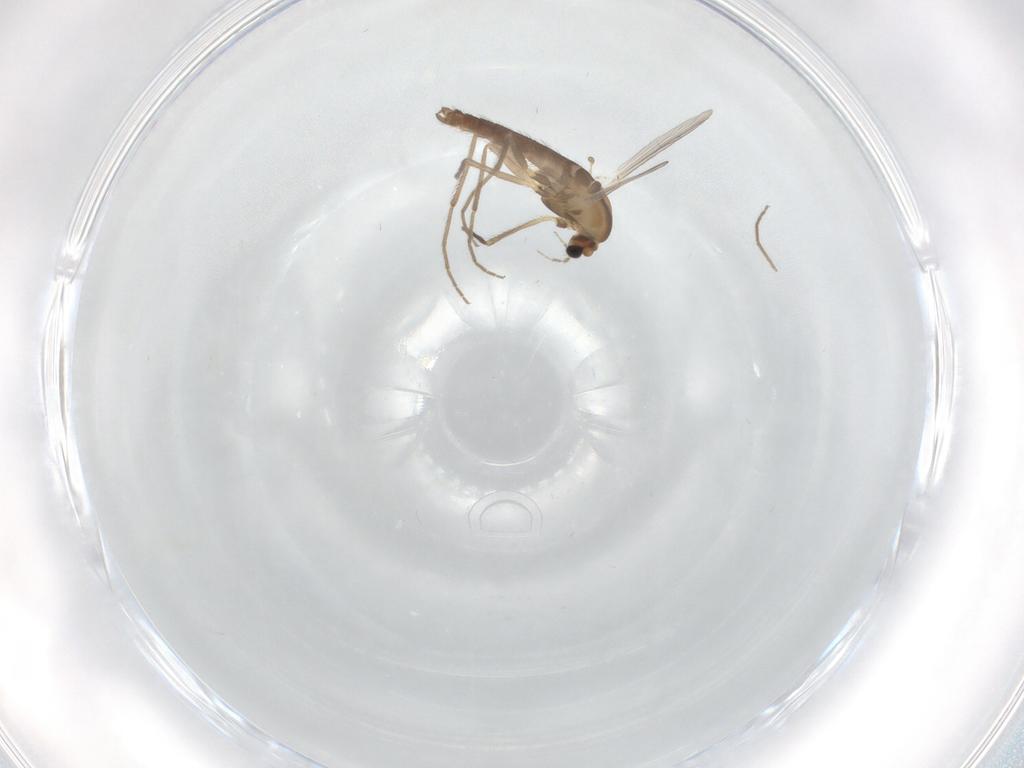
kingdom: Animalia
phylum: Arthropoda
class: Insecta
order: Diptera
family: Chironomidae
